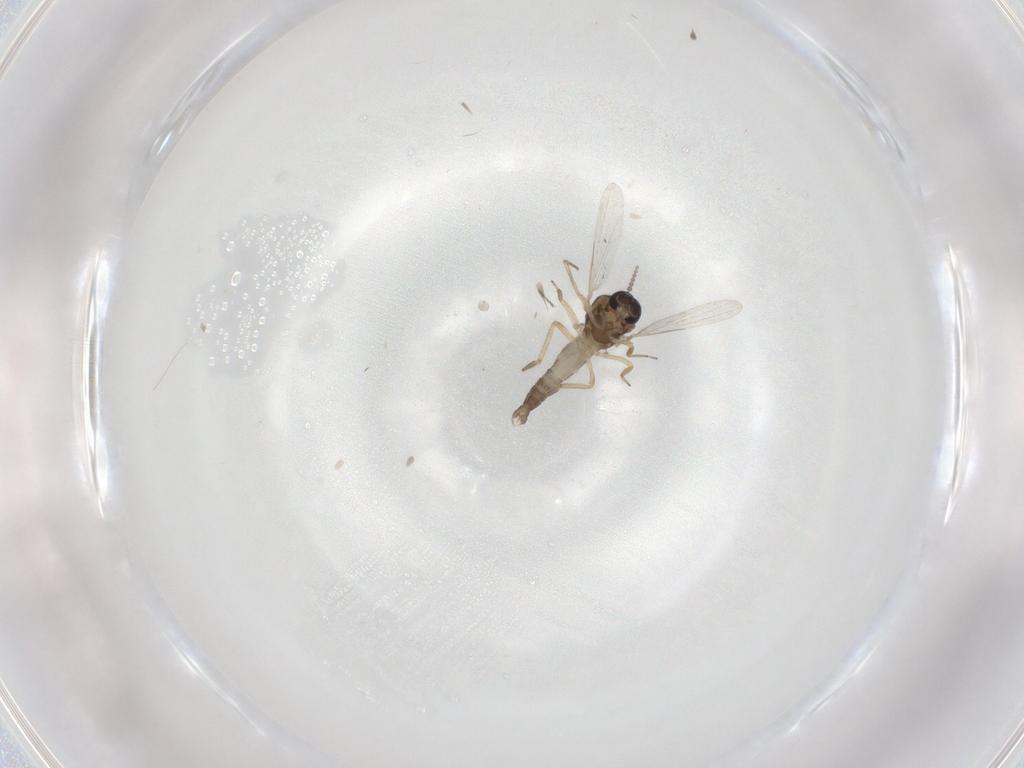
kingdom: Animalia
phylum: Arthropoda
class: Insecta
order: Diptera
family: Ceratopogonidae
